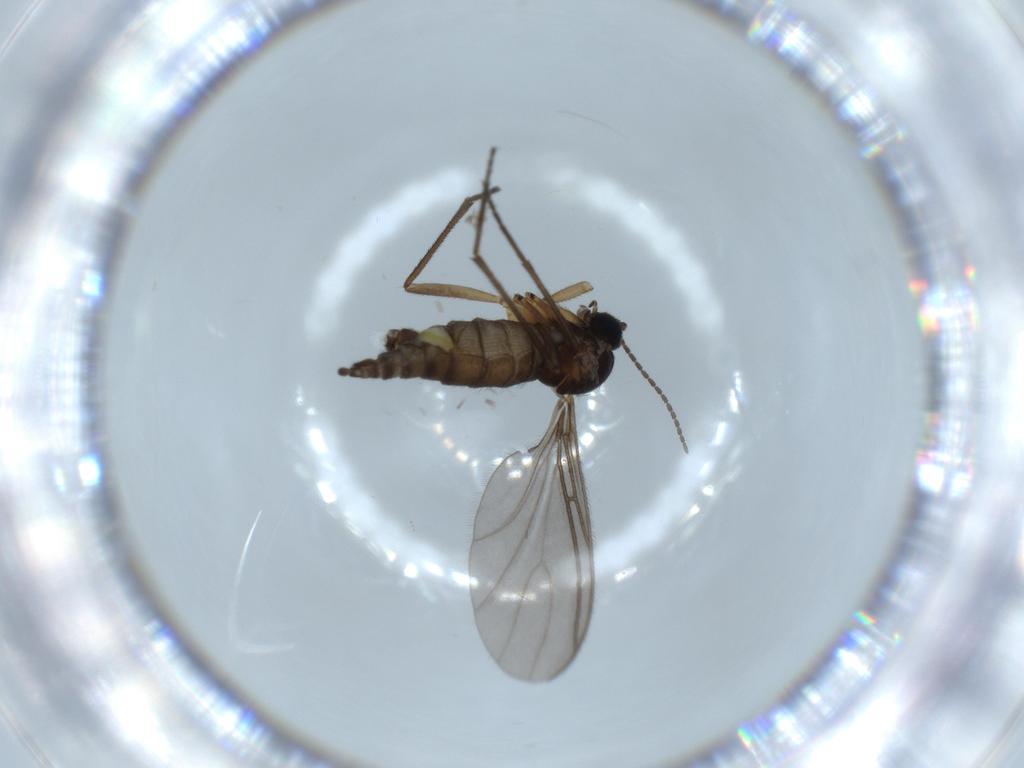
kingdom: Animalia
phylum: Arthropoda
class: Insecta
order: Diptera
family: Sciaridae
